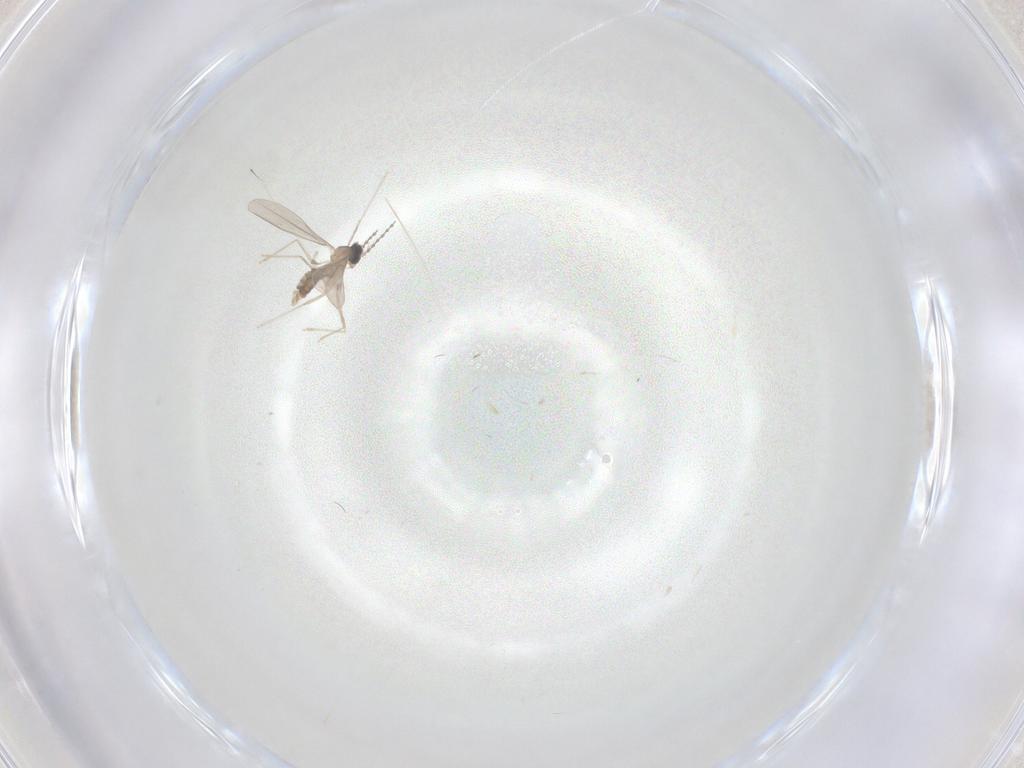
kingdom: Animalia
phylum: Arthropoda
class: Insecta
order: Diptera
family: Cecidomyiidae
